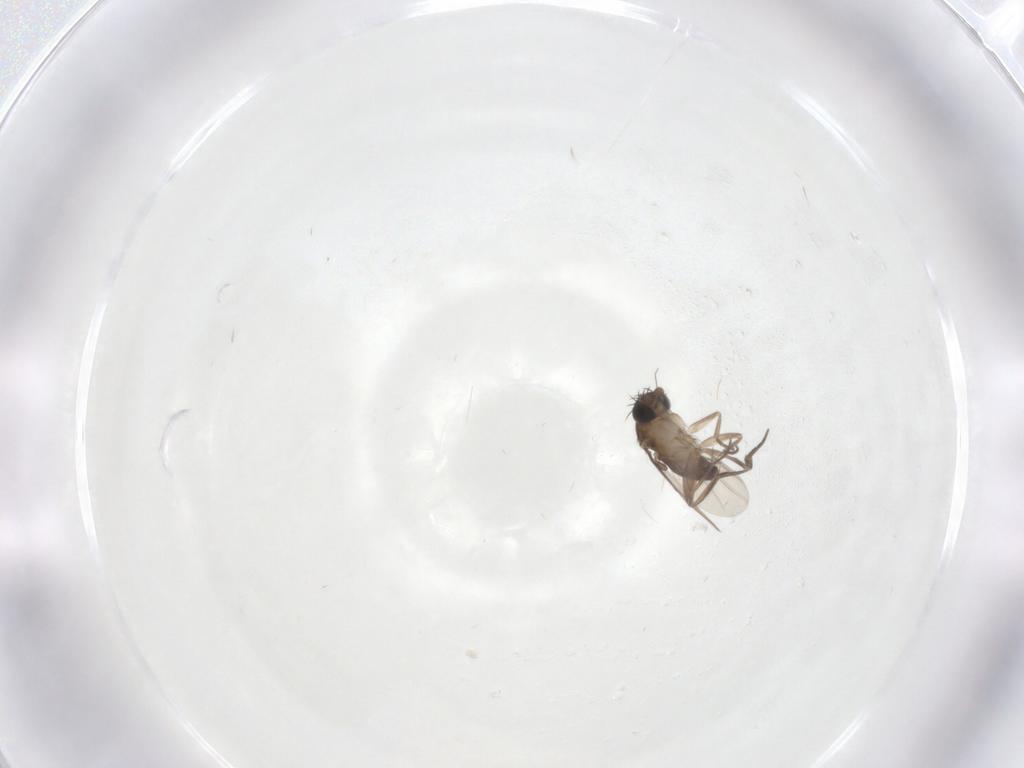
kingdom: Animalia
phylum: Arthropoda
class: Insecta
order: Diptera
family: Phoridae
